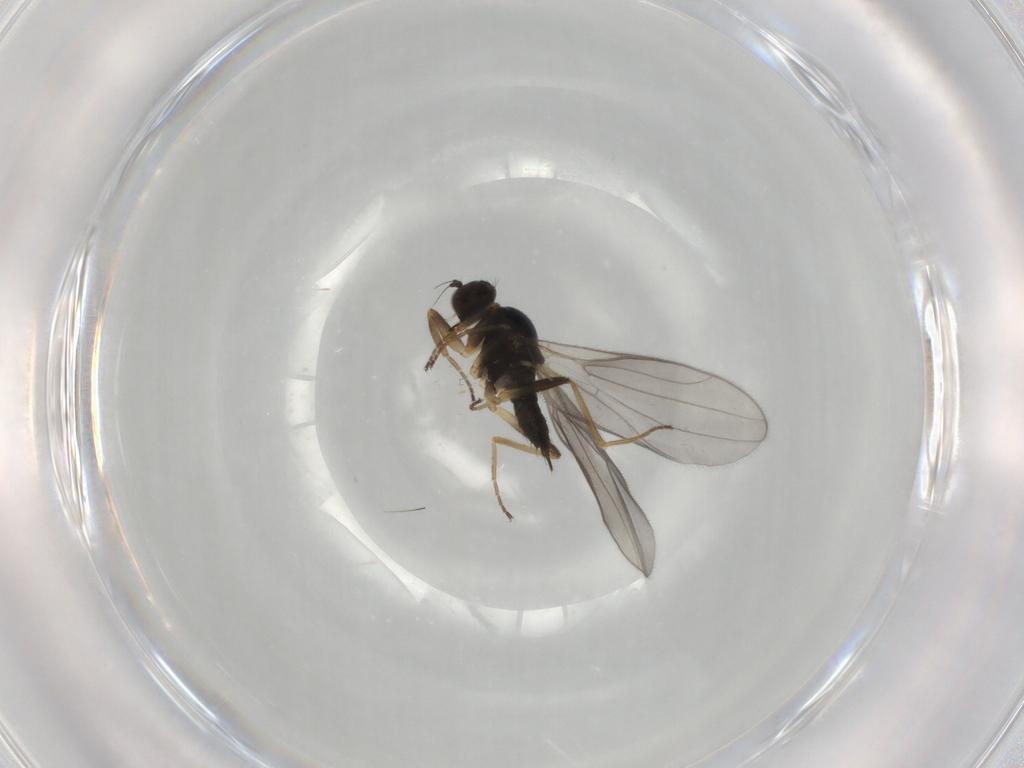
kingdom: Animalia
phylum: Arthropoda
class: Insecta
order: Diptera
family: Hybotidae
